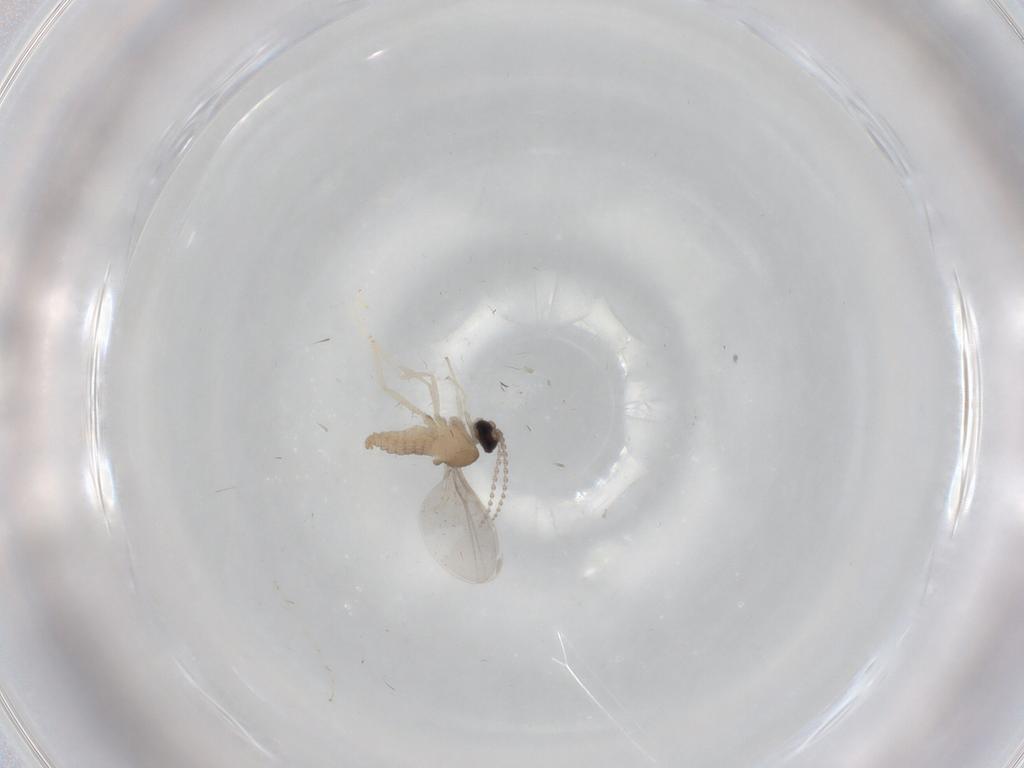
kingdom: Animalia
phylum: Arthropoda
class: Insecta
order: Diptera
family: Cecidomyiidae
